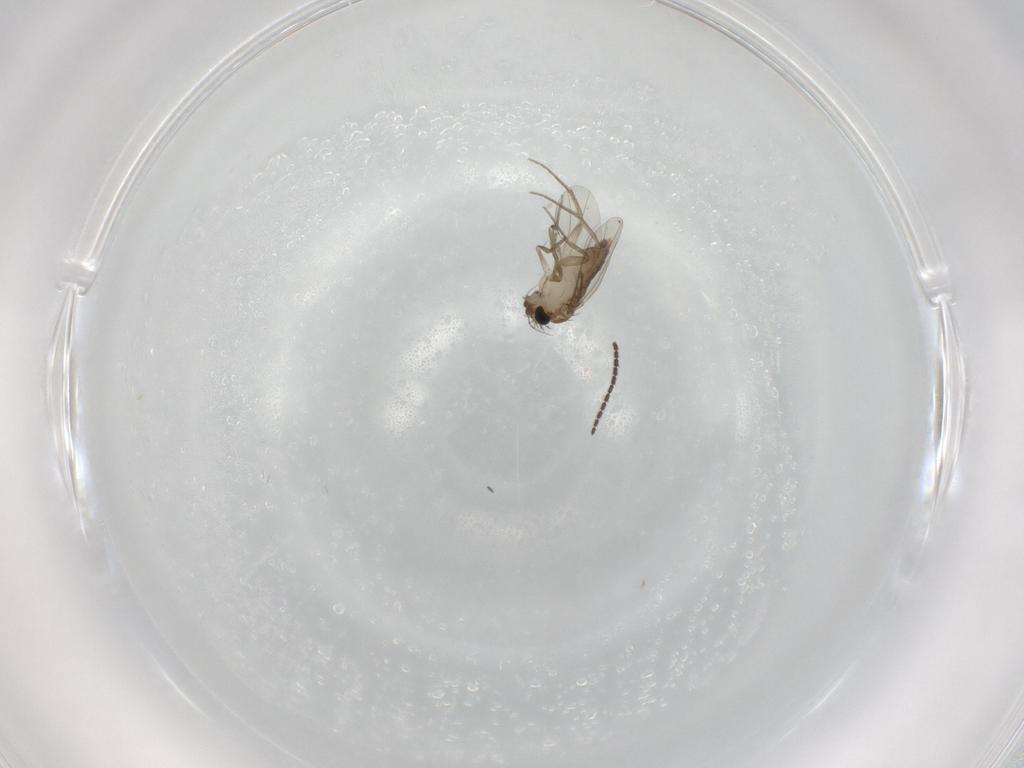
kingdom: Animalia
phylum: Arthropoda
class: Insecta
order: Diptera
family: Phoridae
